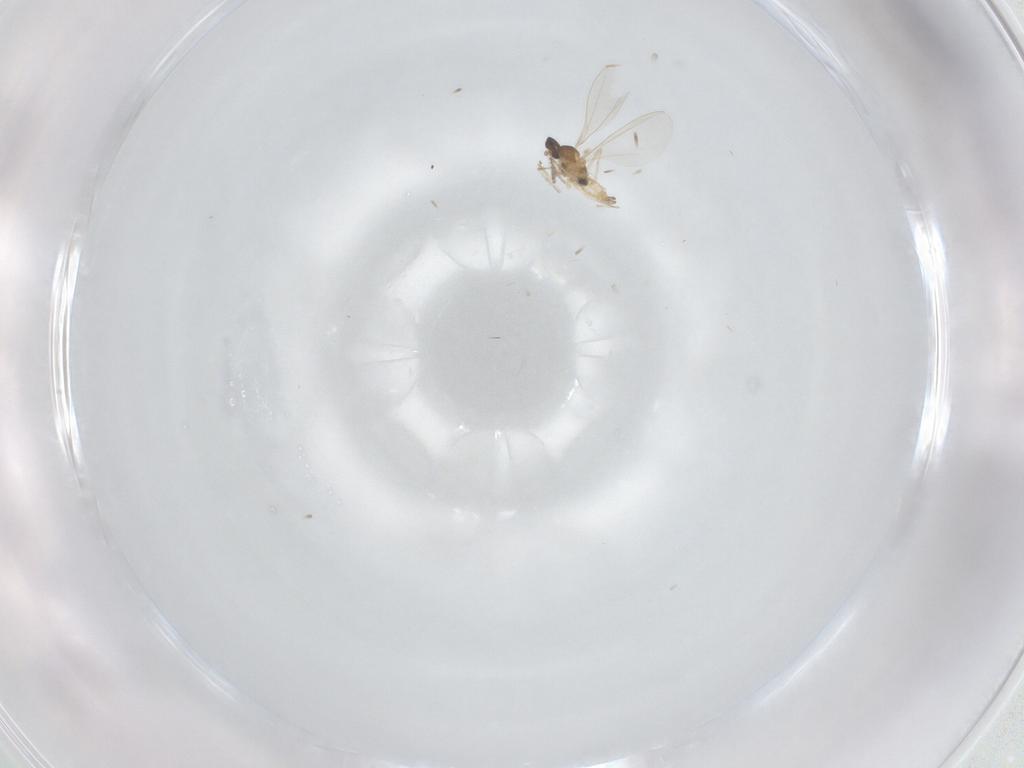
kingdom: Animalia
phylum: Arthropoda
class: Insecta
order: Diptera
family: Cecidomyiidae
